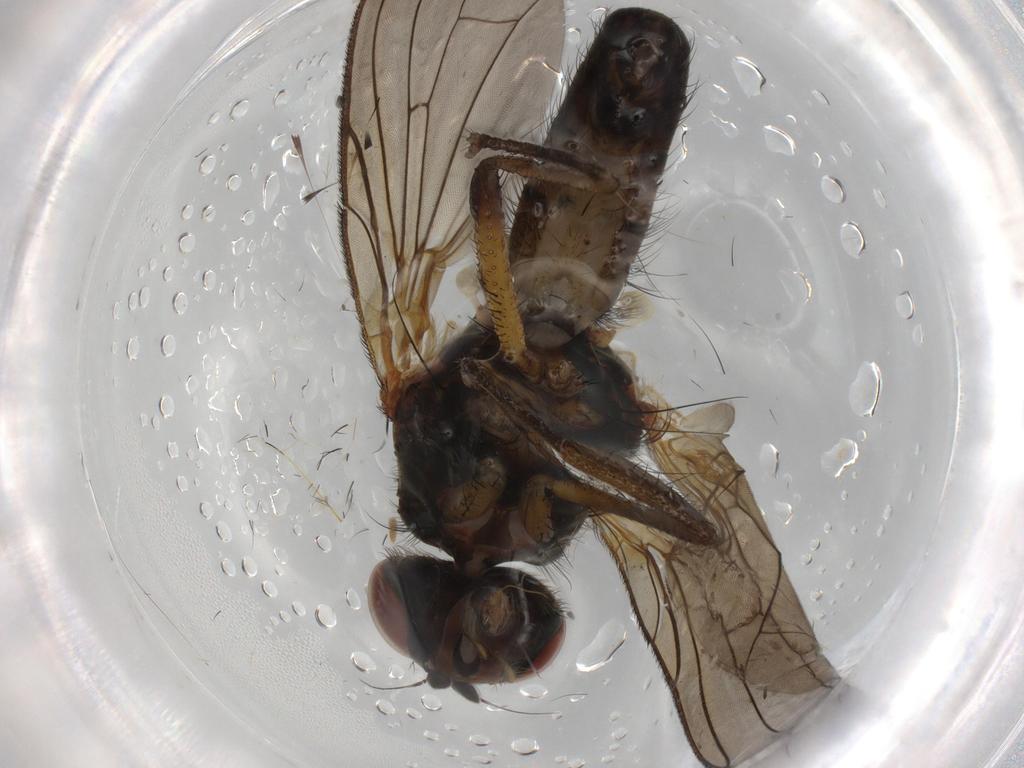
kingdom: Animalia
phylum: Arthropoda
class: Insecta
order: Diptera
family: Anthomyiidae
